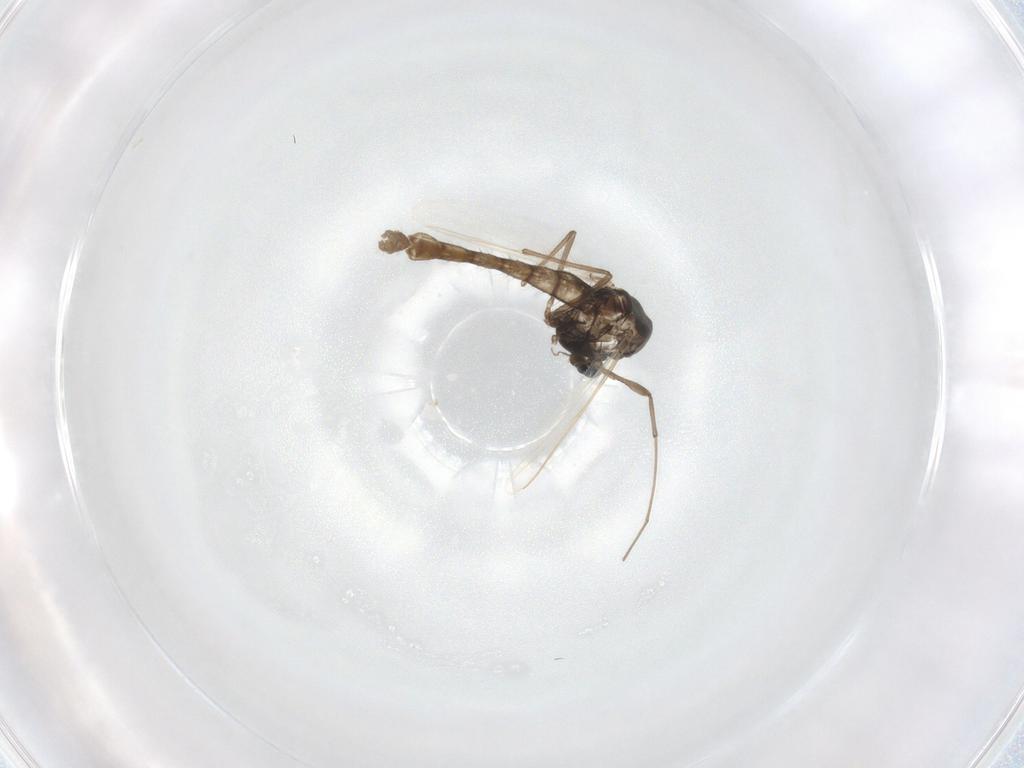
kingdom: Animalia
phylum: Arthropoda
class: Insecta
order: Diptera
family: Chironomidae
